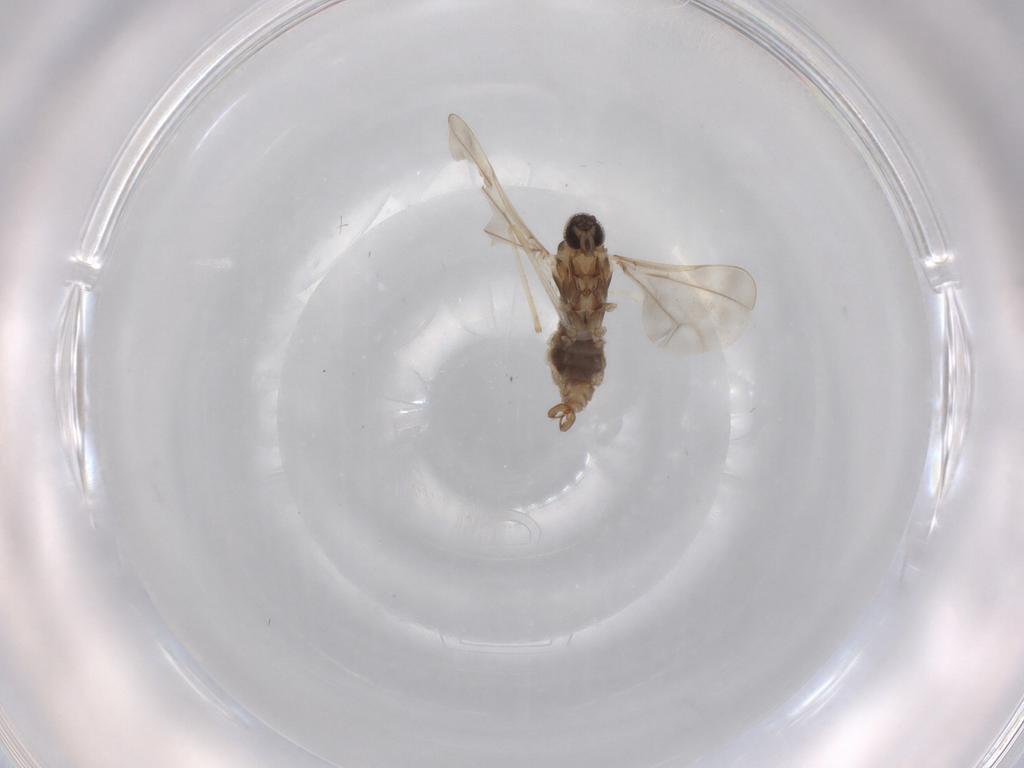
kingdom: Animalia
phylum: Arthropoda
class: Insecta
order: Diptera
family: Cecidomyiidae
